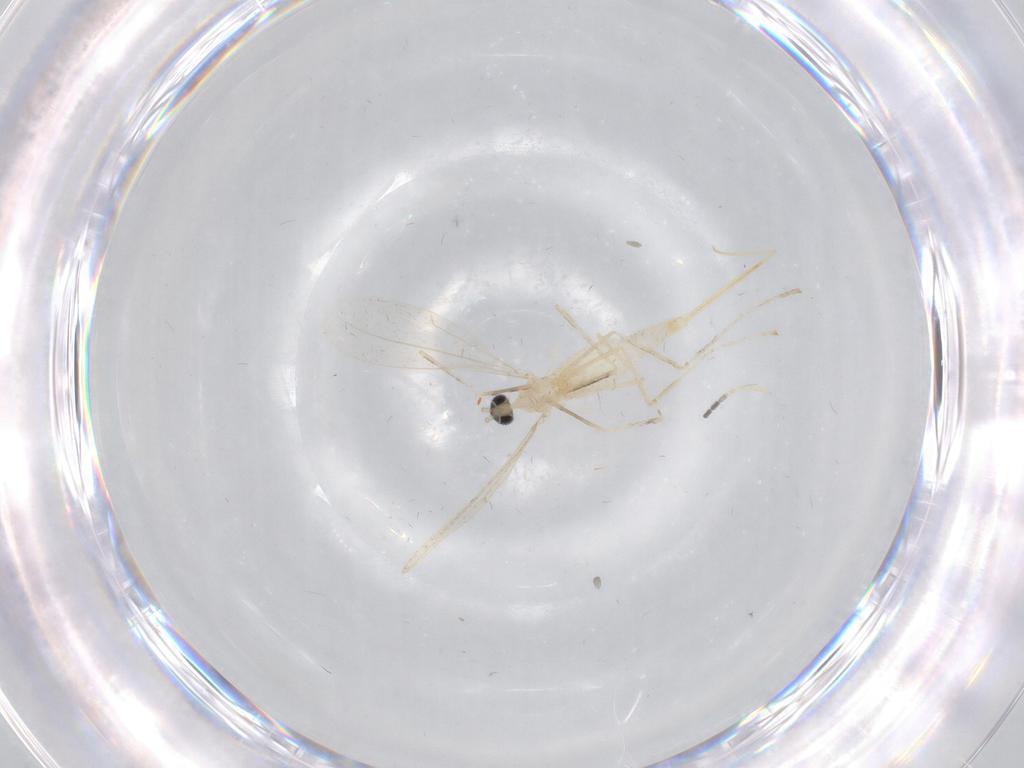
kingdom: Animalia
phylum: Arthropoda
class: Insecta
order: Diptera
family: Cecidomyiidae
